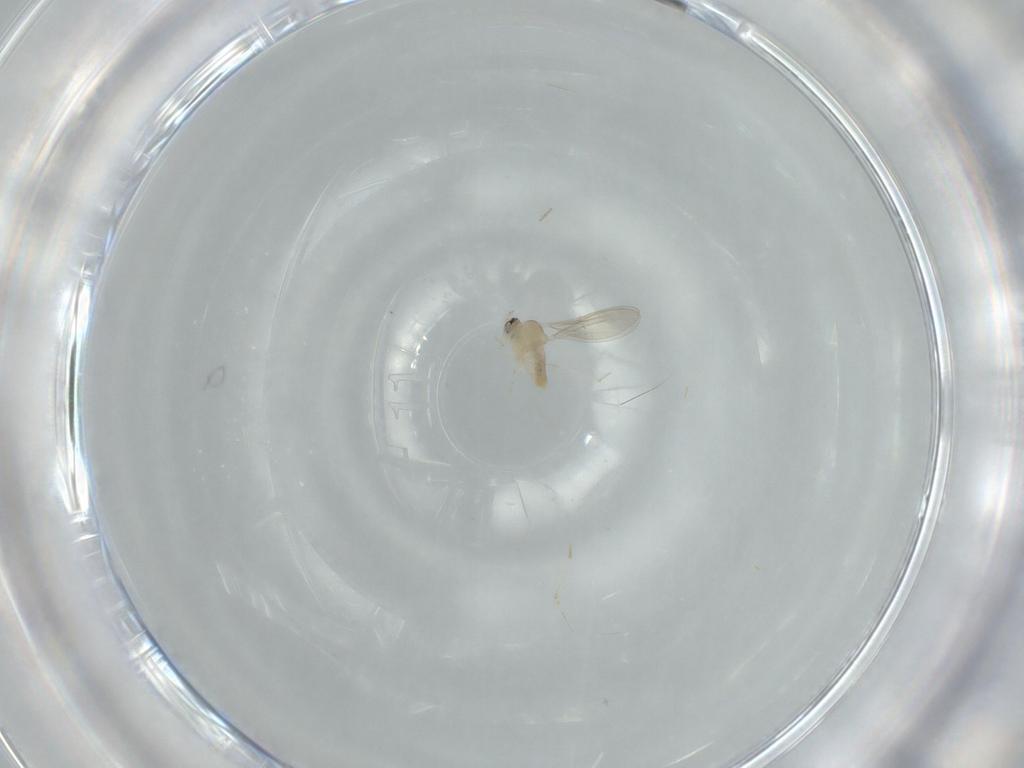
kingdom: Animalia
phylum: Arthropoda
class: Insecta
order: Diptera
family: Cecidomyiidae
